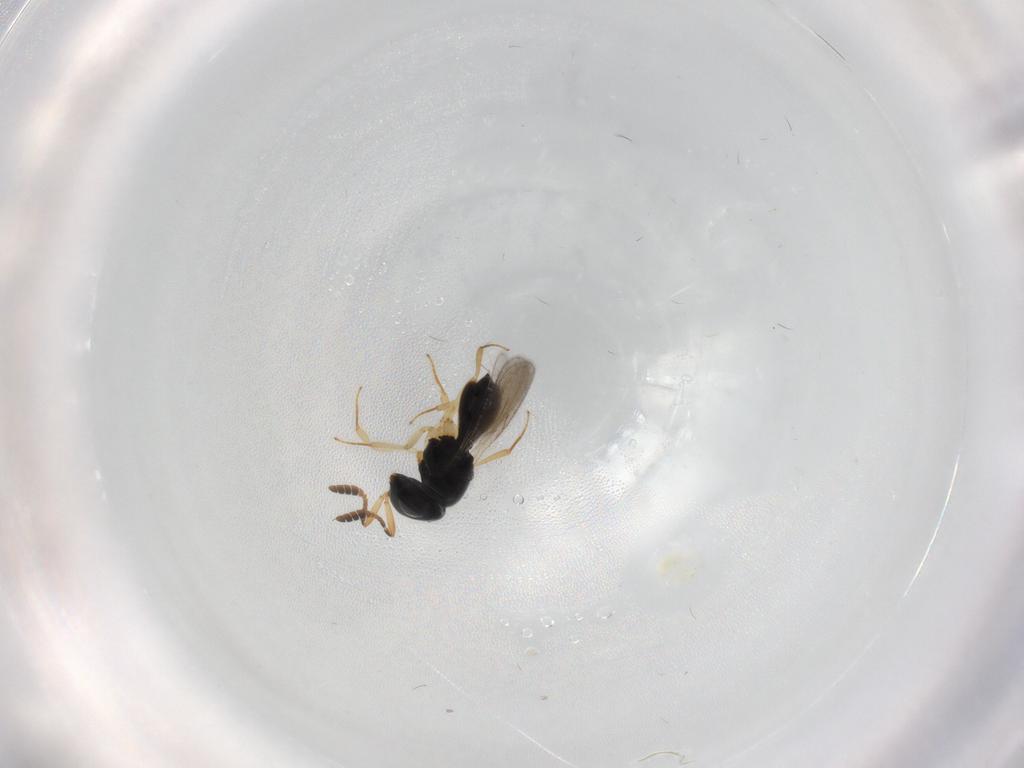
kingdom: Animalia
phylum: Arthropoda
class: Insecta
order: Hymenoptera
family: Scelionidae
